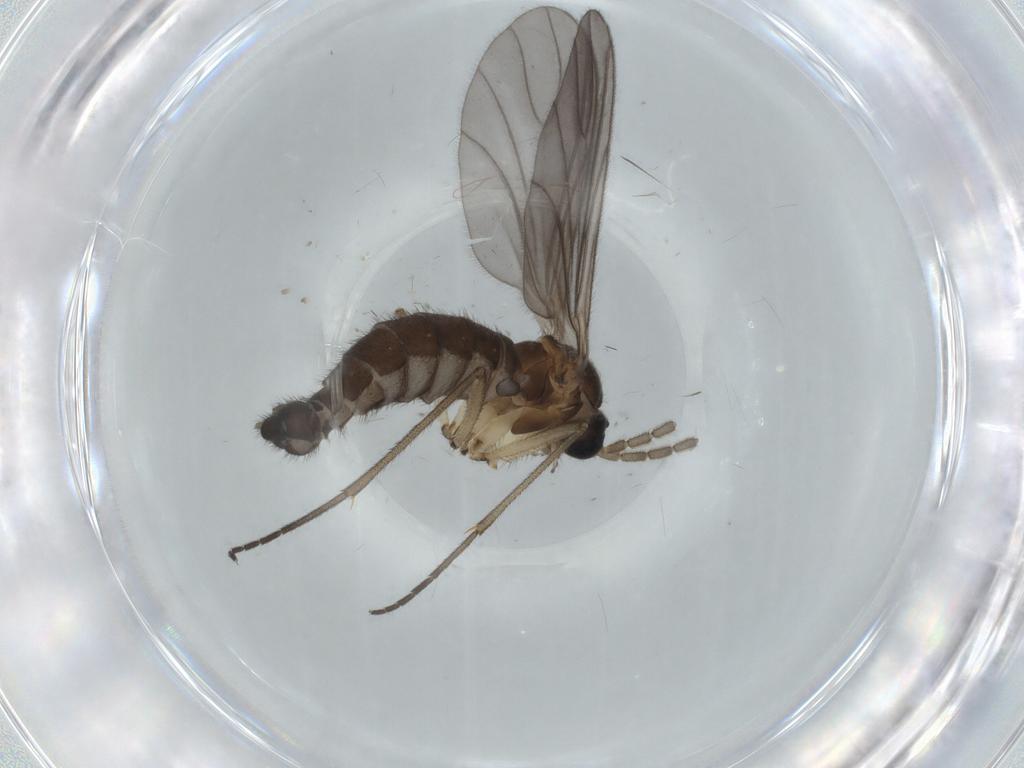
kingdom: Animalia
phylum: Arthropoda
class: Insecta
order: Diptera
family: Sciaridae
